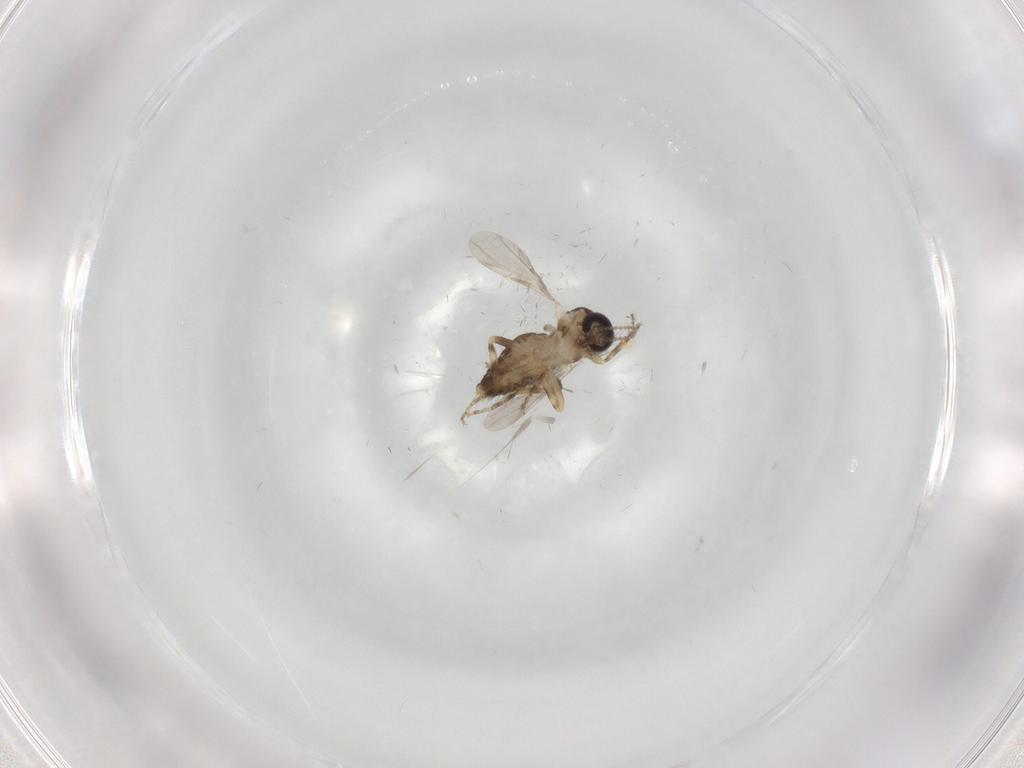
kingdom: Animalia
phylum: Arthropoda
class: Insecta
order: Diptera
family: Ceratopogonidae
